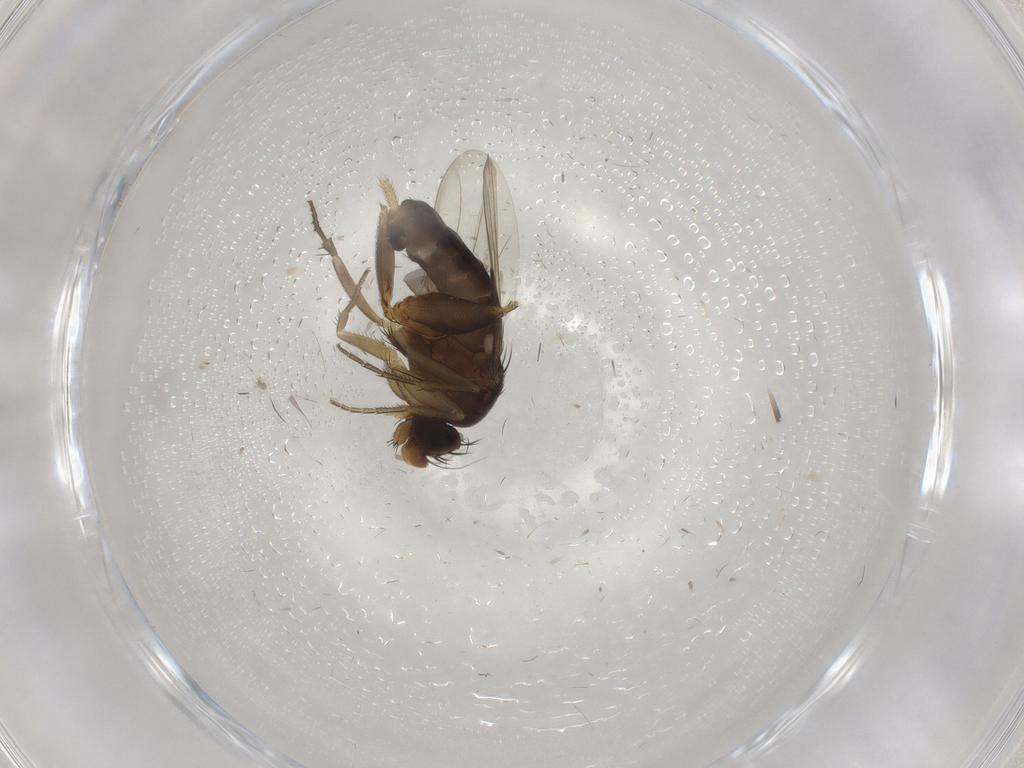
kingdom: Animalia
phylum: Arthropoda
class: Insecta
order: Diptera
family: Phoridae
